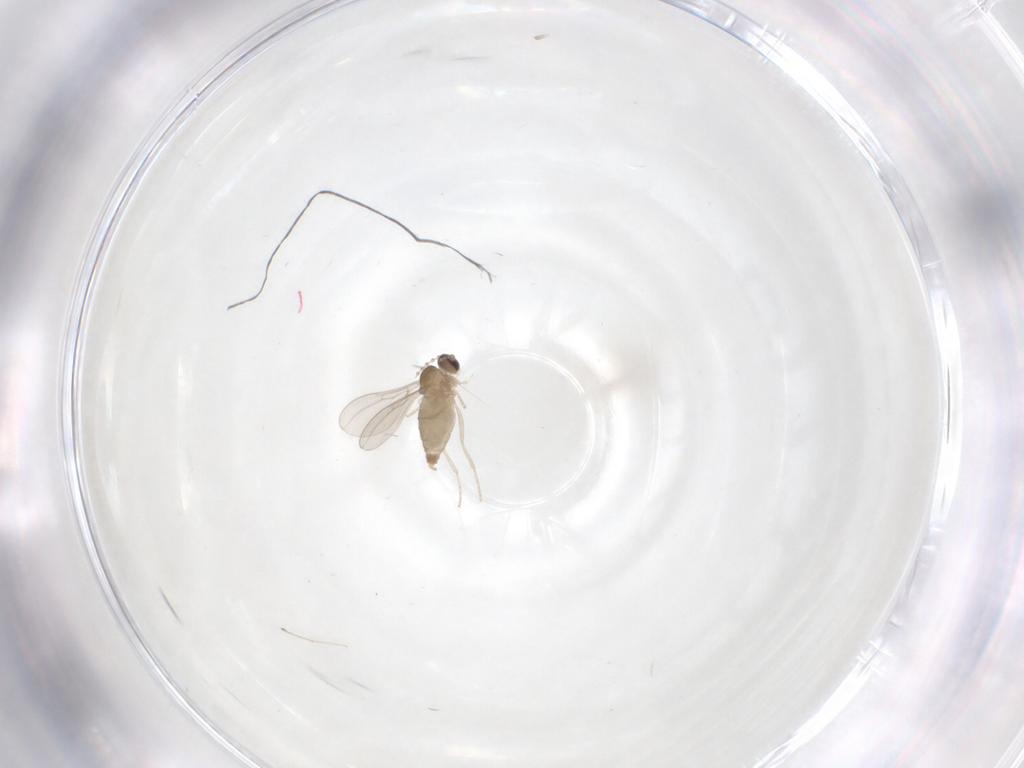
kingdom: Animalia
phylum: Arthropoda
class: Insecta
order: Diptera
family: Cecidomyiidae
